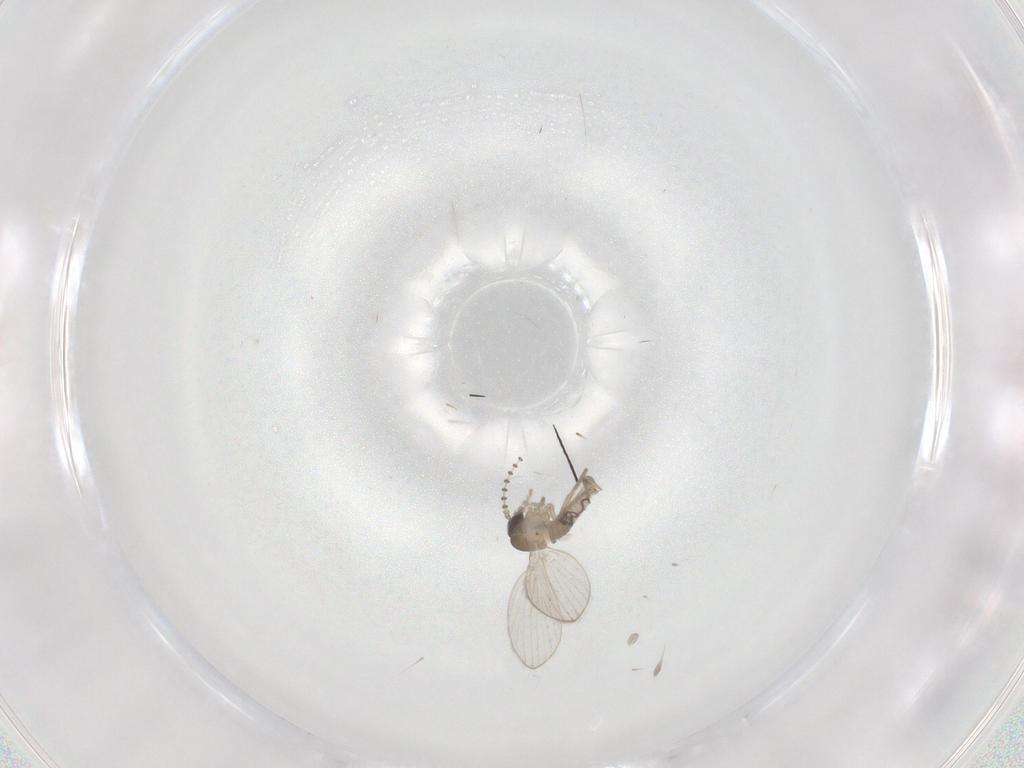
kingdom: Animalia
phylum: Arthropoda
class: Insecta
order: Diptera
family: Psychodidae
